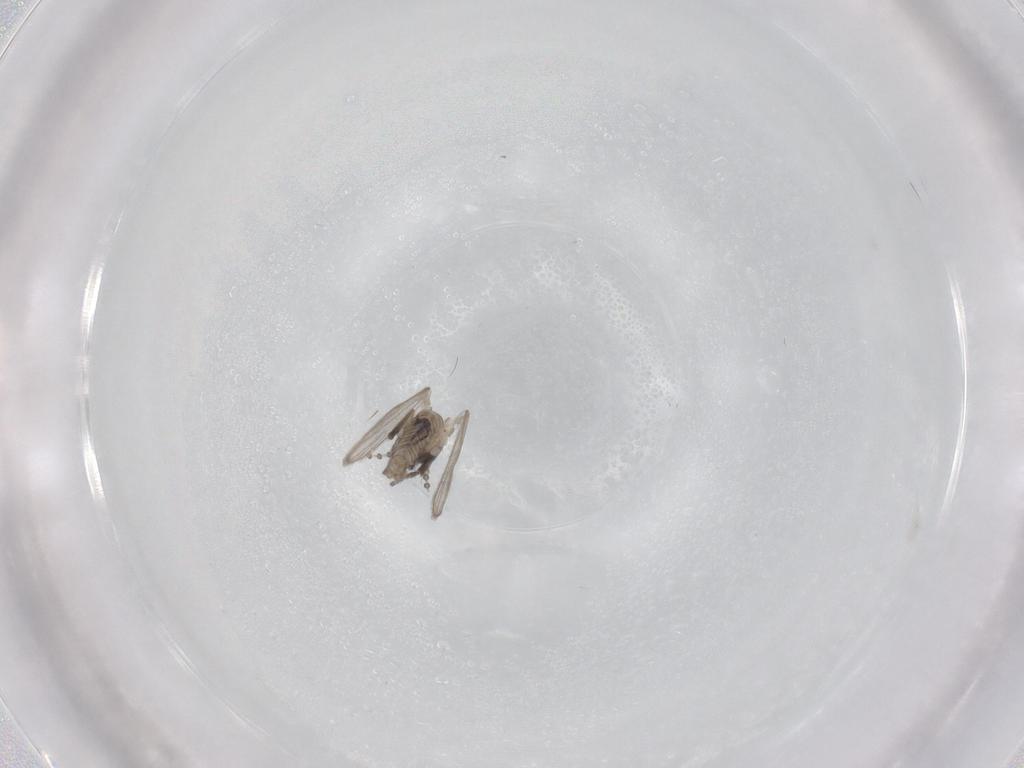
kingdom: Animalia
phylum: Arthropoda
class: Insecta
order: Diptera
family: Psychodidae
